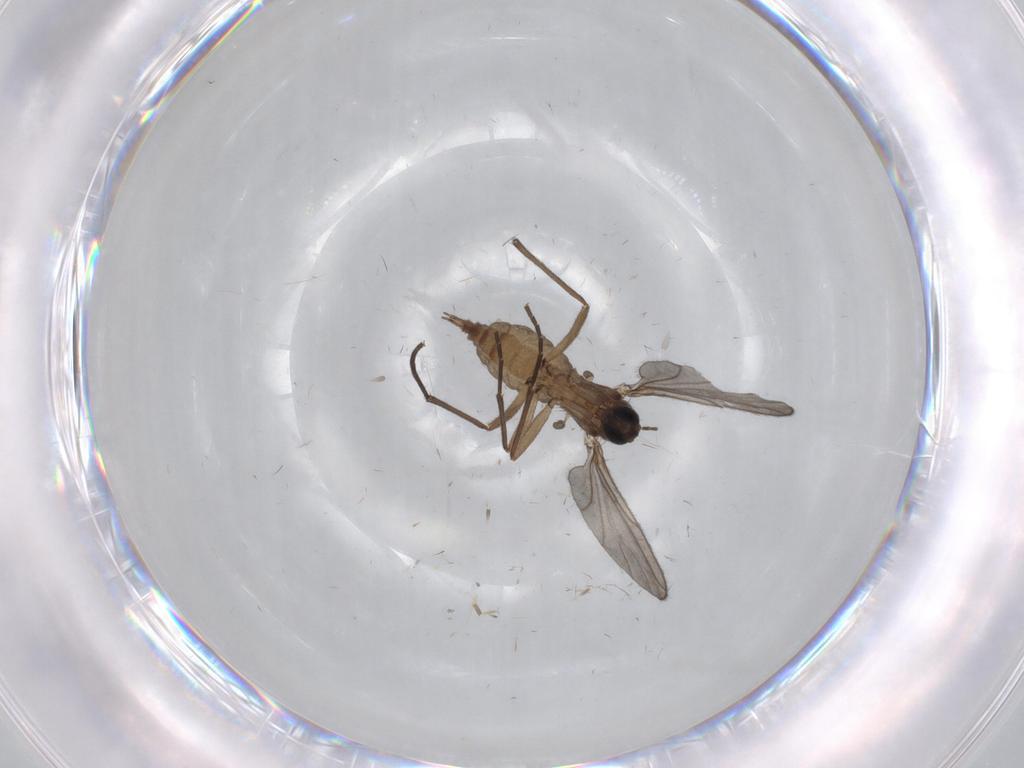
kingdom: Animalia
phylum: Arthropoda
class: Insecta
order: Diptera
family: Sciaridae
